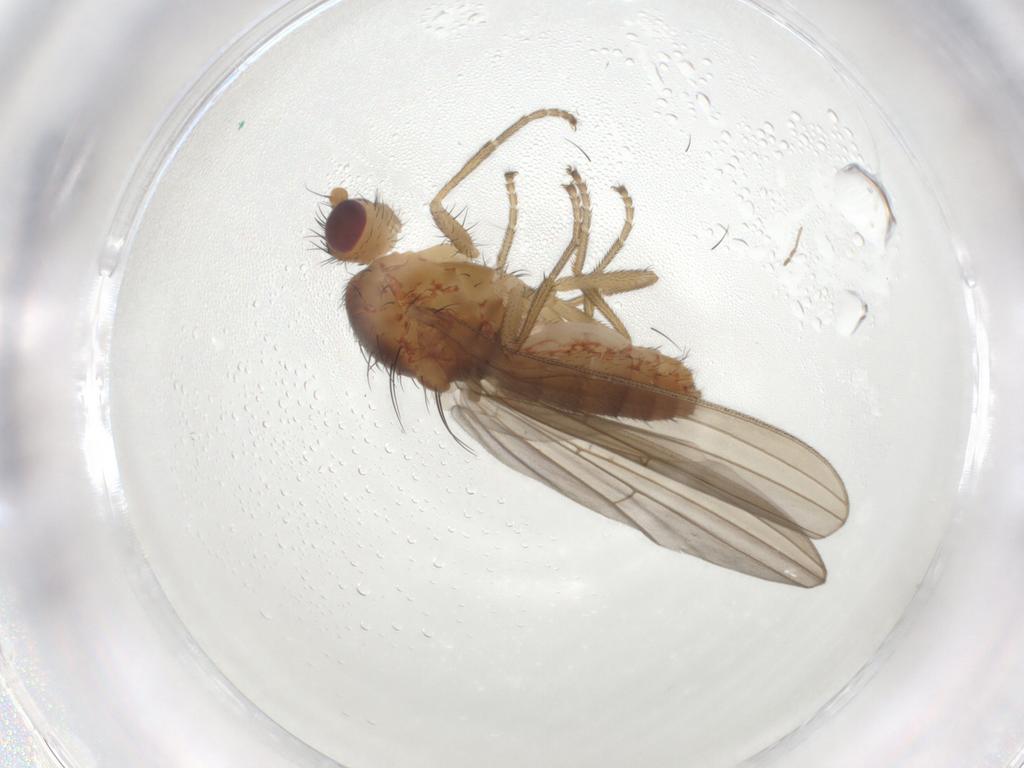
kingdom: Animalia
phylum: Arthropoda
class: Insecta
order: Diptera
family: Natalimyzidae
